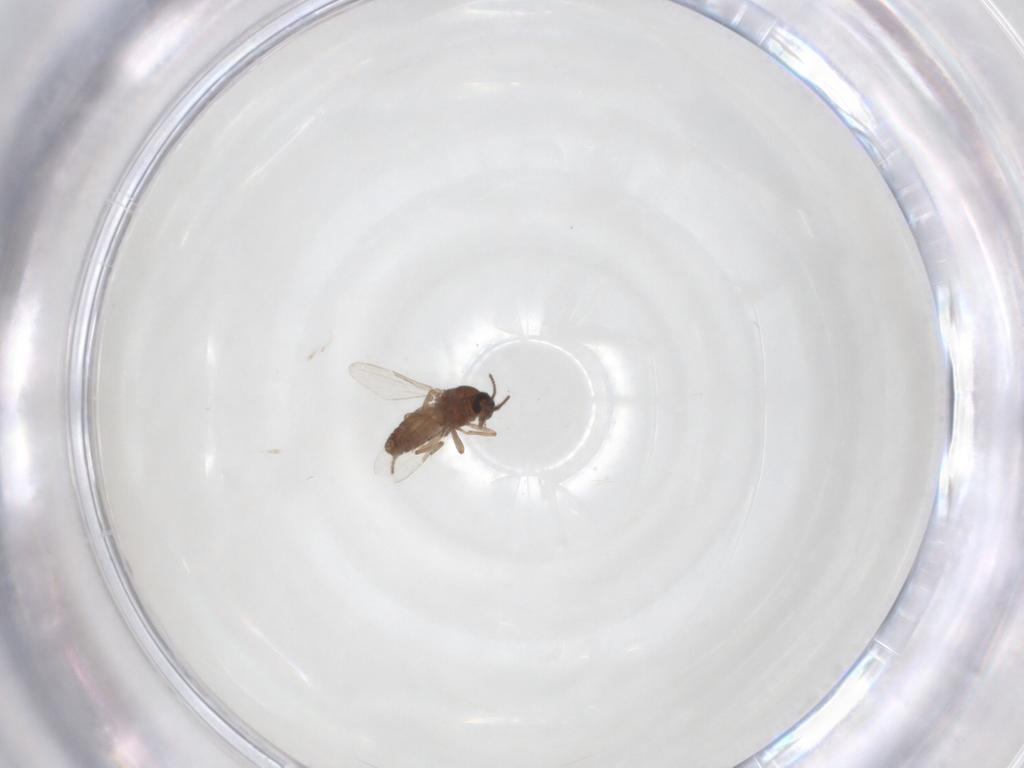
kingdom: Animalia
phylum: Arthropoda
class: Insecta
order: Diptera
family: Ceratopogonidae
